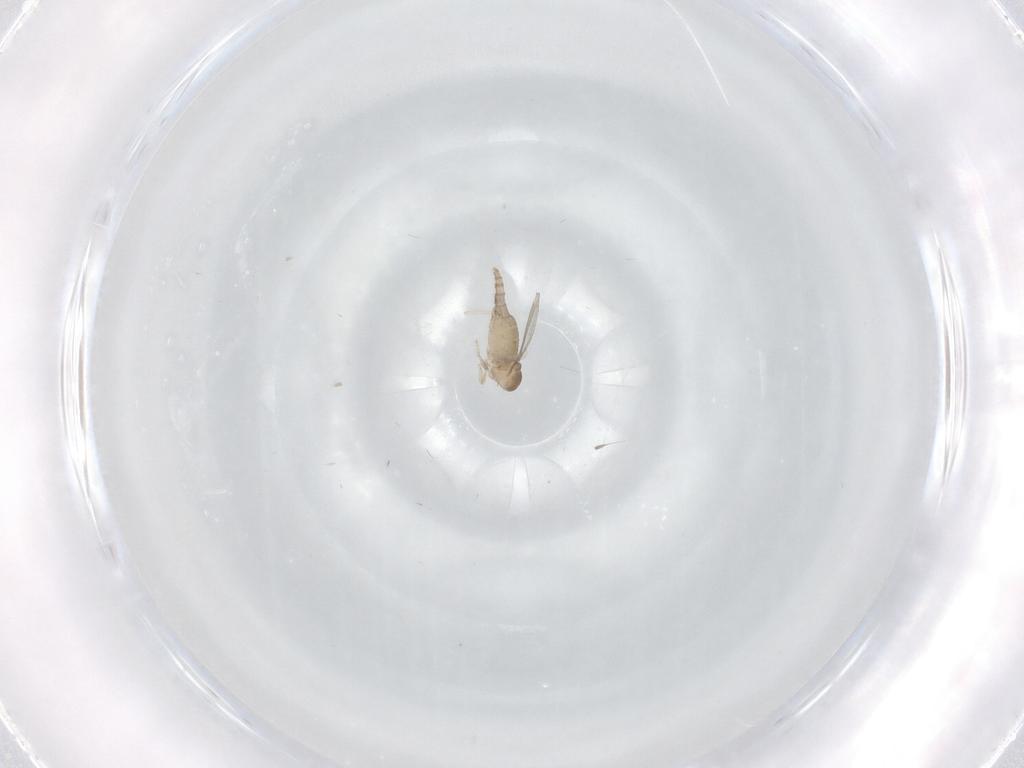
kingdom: Animalia
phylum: Arthropoda
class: Insecta
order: Diptera
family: Cecidomyiidae
